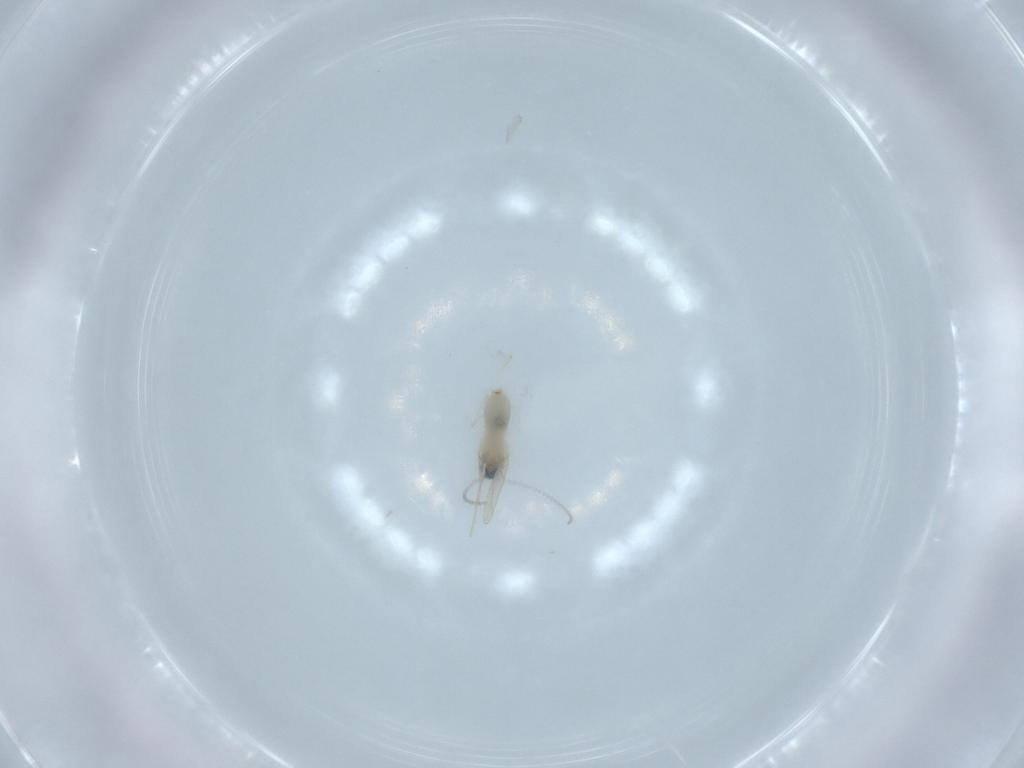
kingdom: Animalia
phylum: Arthropoda
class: Insecta
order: Diptera
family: Cecidomyiidae
